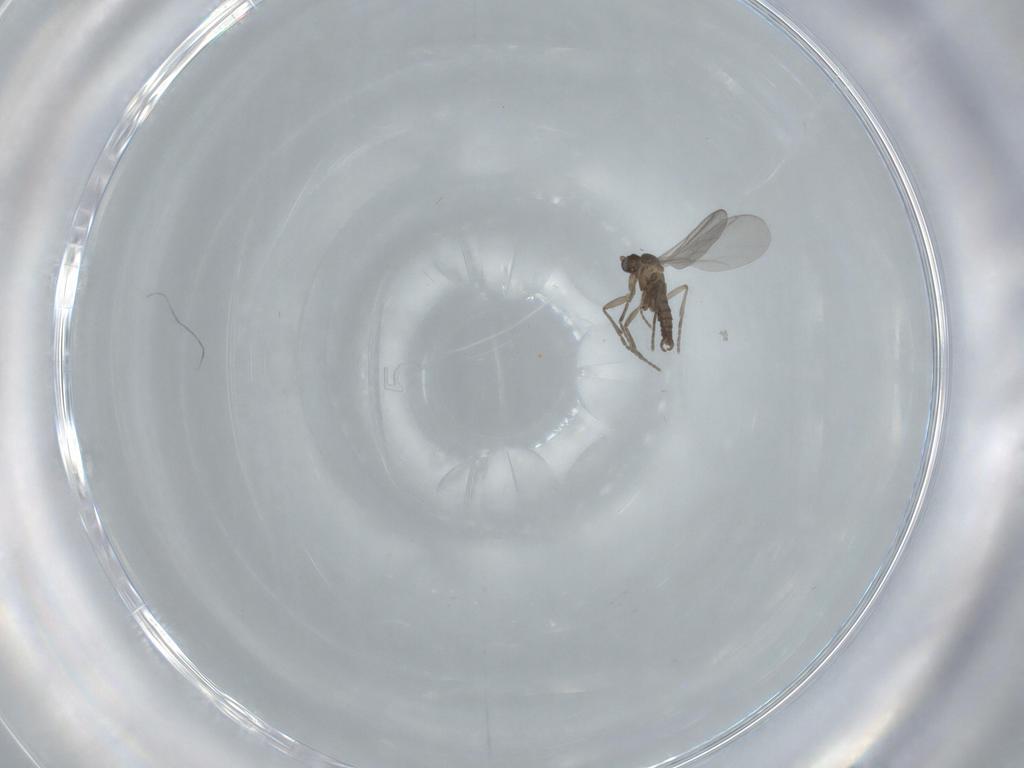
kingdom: Animalia
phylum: Arthropoda
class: Insecta
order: Diptera
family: Sciaridae
